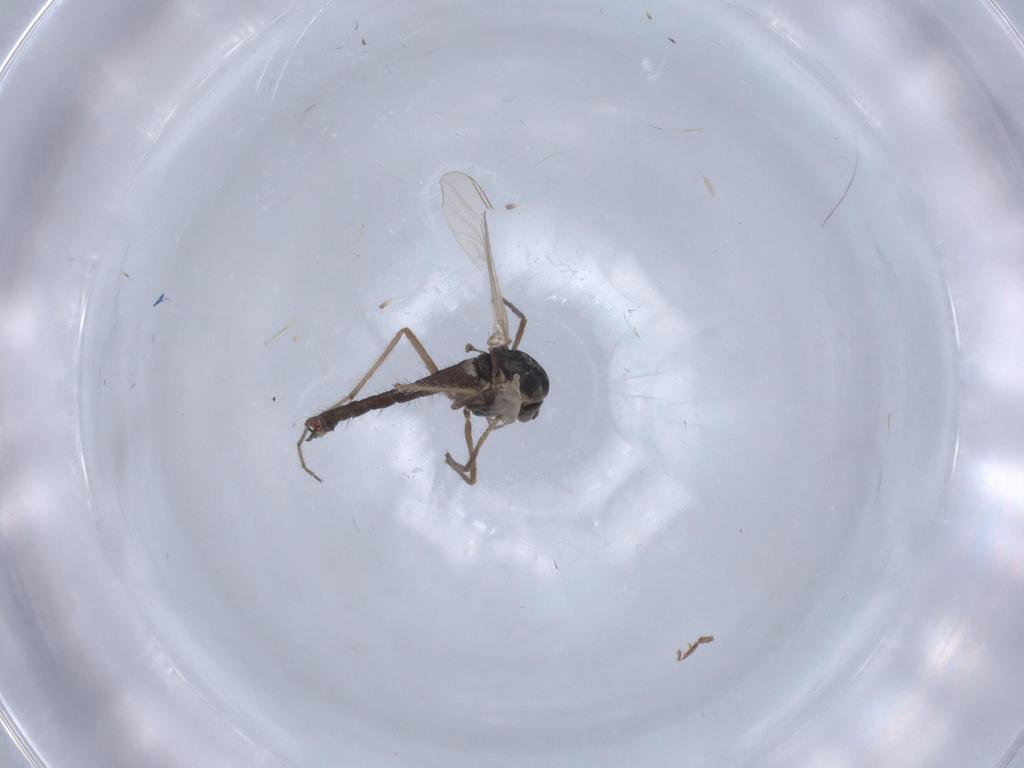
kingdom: Animalia
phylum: Arthropoda
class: Insecta
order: Diptera
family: Chironomidae
